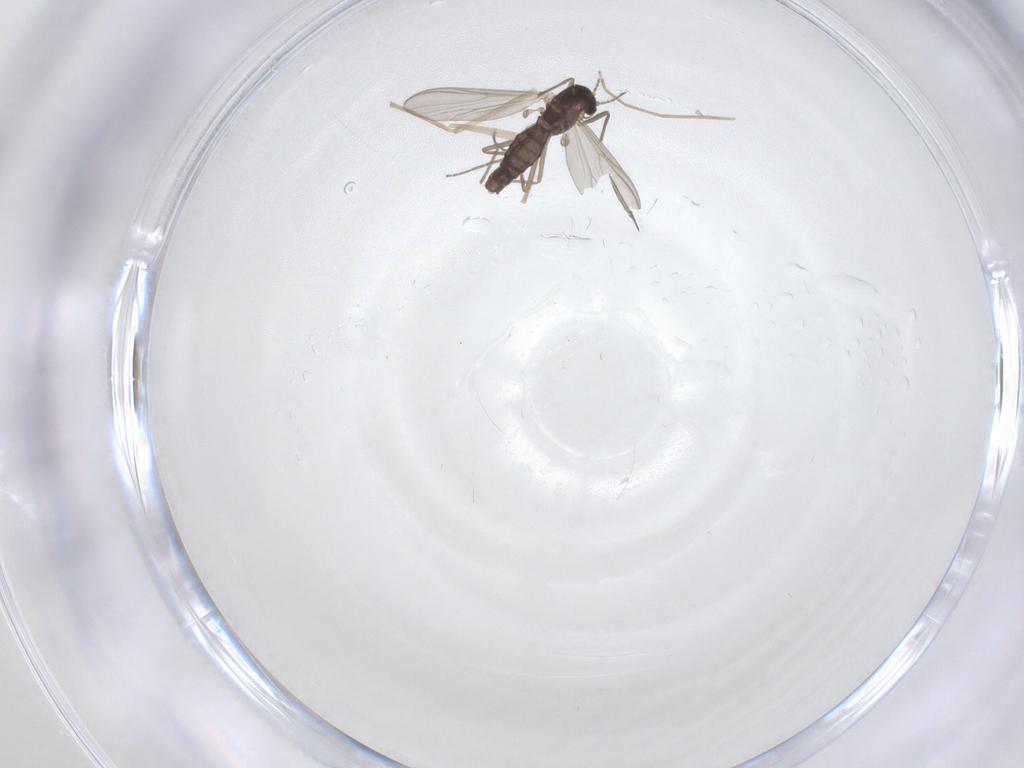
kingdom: Animalia
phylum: Arthropoda
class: Insecta
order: Diptera
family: Chironomidae
